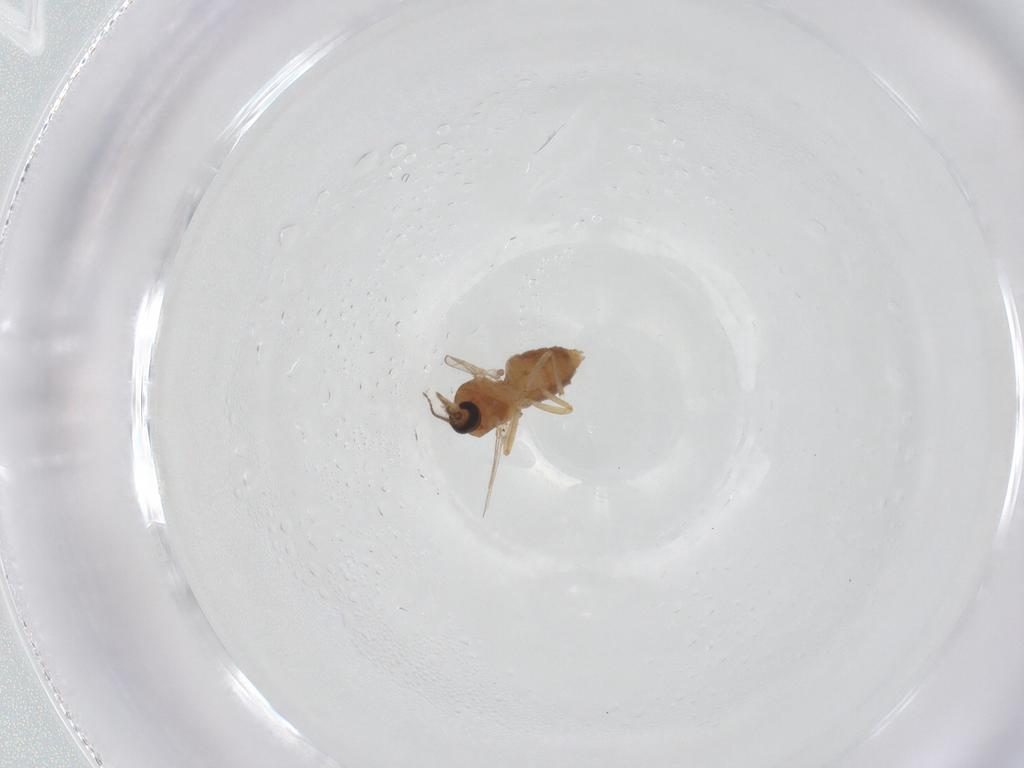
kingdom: Animalia
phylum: Arthropoda
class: Insecta
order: Diptera
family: Ceratopogonidae
